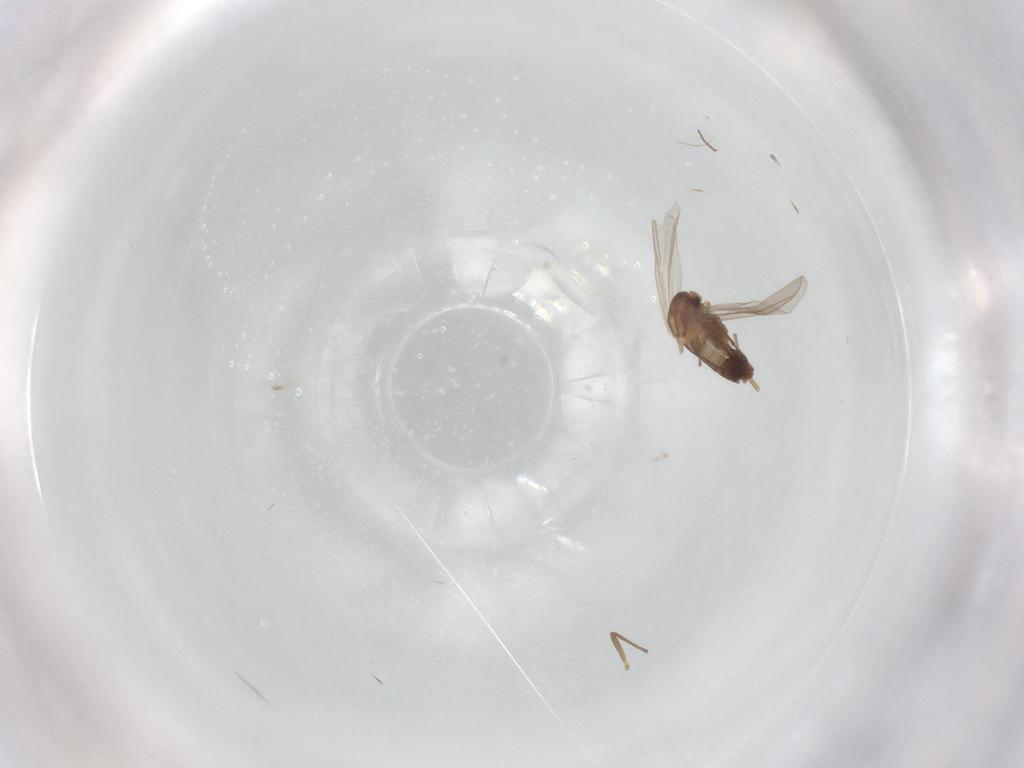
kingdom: Animalia
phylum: Arthropoda
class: Insecta
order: Diptera
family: Chironomidae
